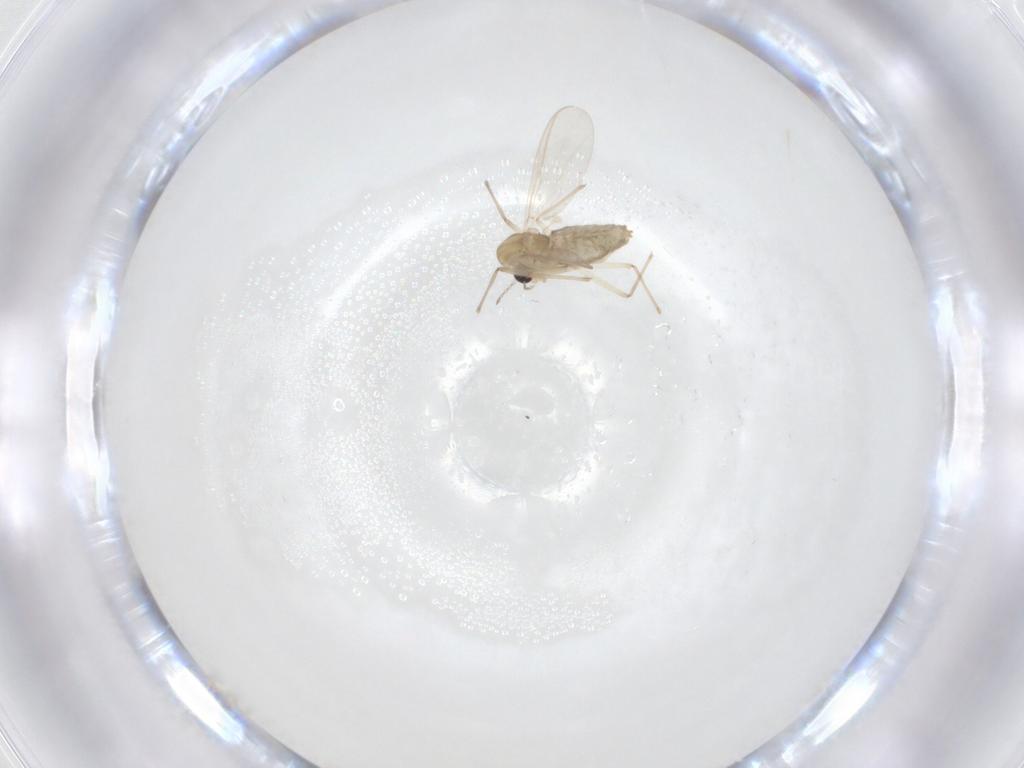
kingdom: Animalia
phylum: Arthropoda
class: Insecta
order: Diptera
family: Chironomidae
